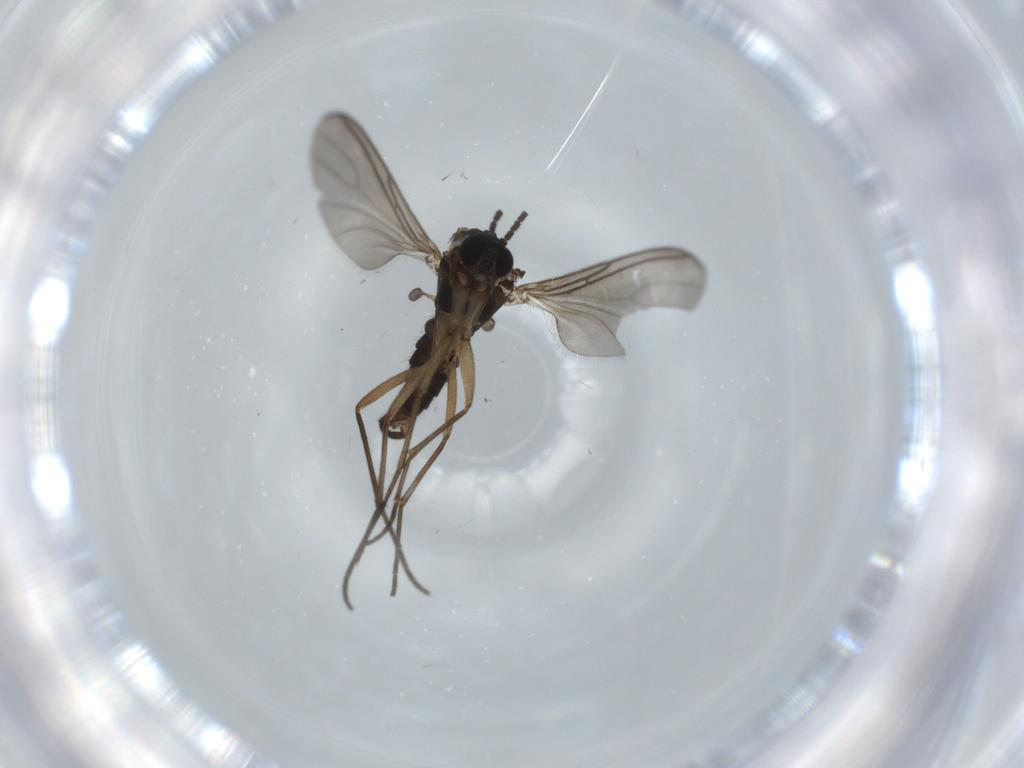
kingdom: Animalia
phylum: Arthropoda
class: Insecta
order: Diptera
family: Sciaridae
